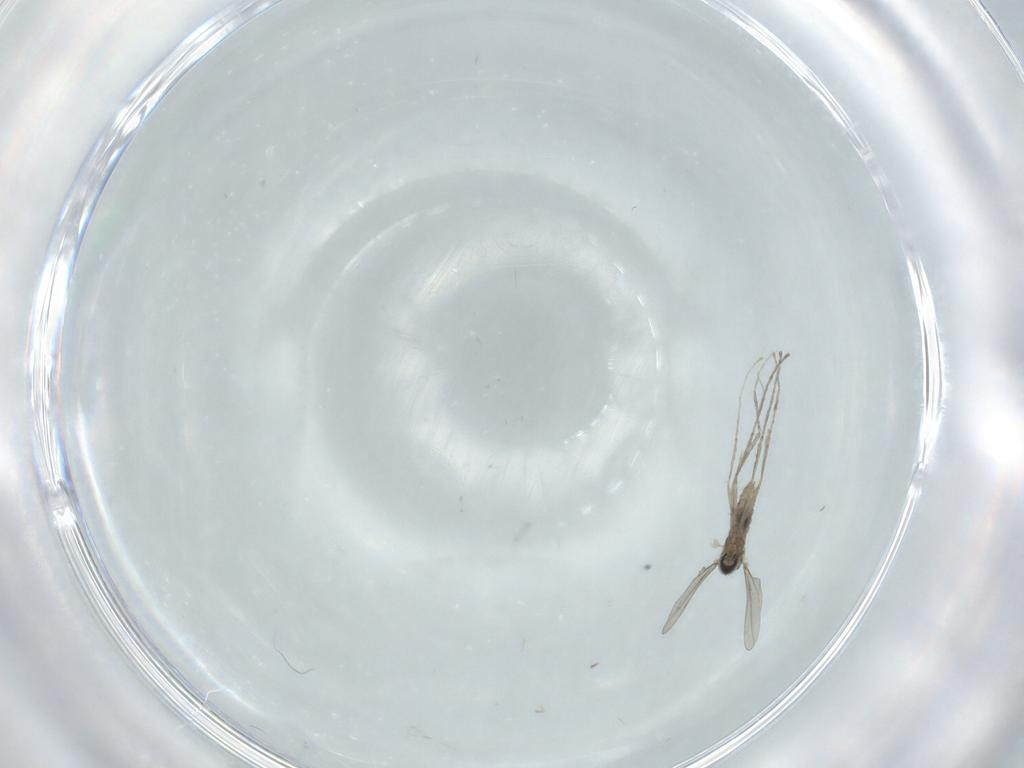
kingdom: Animalia
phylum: Arthropoda
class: Insecta
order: Diptera
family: Cecidomyiidae
